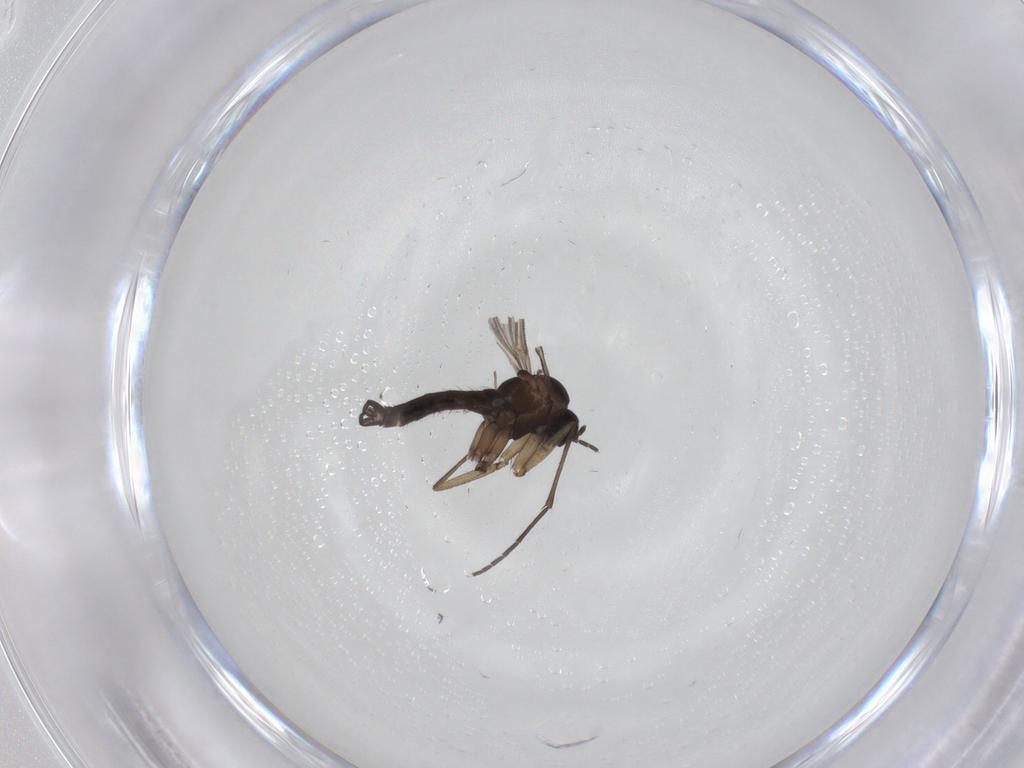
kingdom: Animalia
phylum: Arthropoda
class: Insecta
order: Diptera
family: Sciaridae
